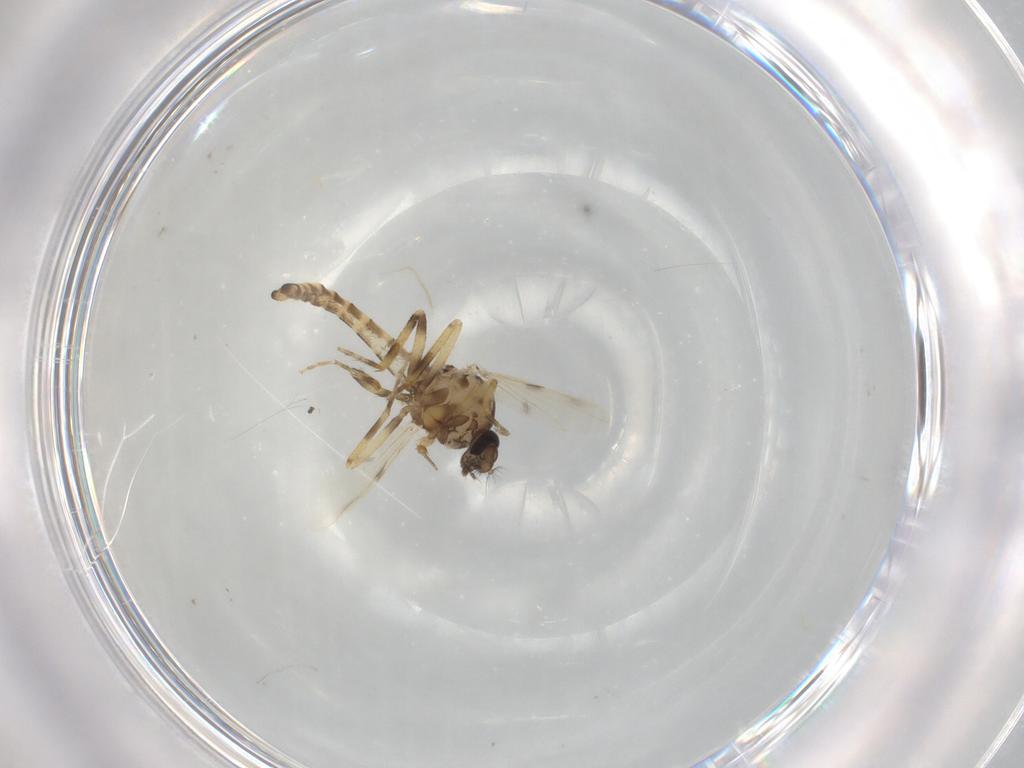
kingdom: Animalia
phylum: Arthropoda
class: Insecta
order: Diptera
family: Ceratopogonidae
